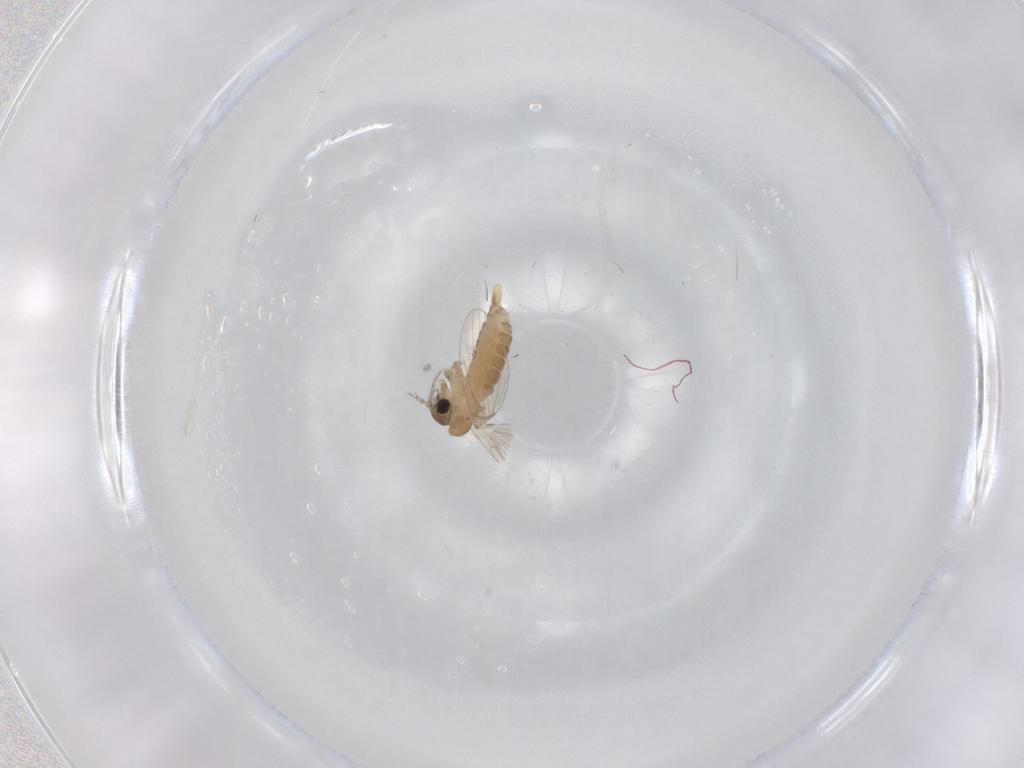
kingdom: Animalia
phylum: Arthropoda
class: Insecta
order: Diptera
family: Psychodidae
